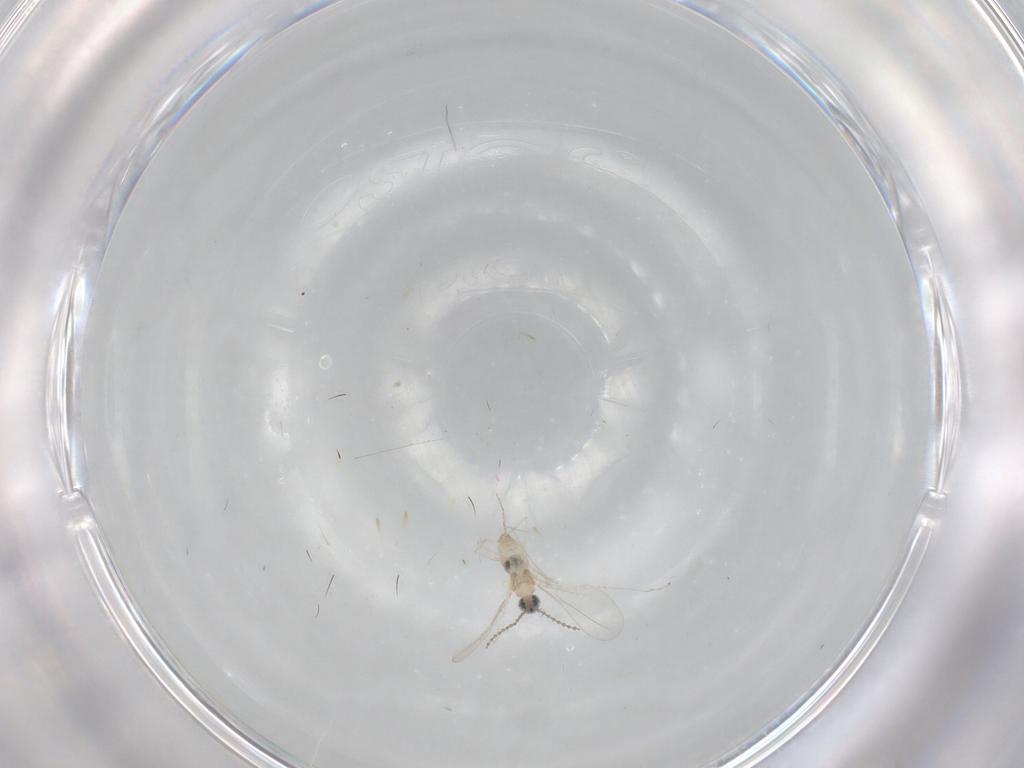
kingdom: Animalia
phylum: Arthropoda
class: Insecta
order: Diptera
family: Cecidomyiidae
